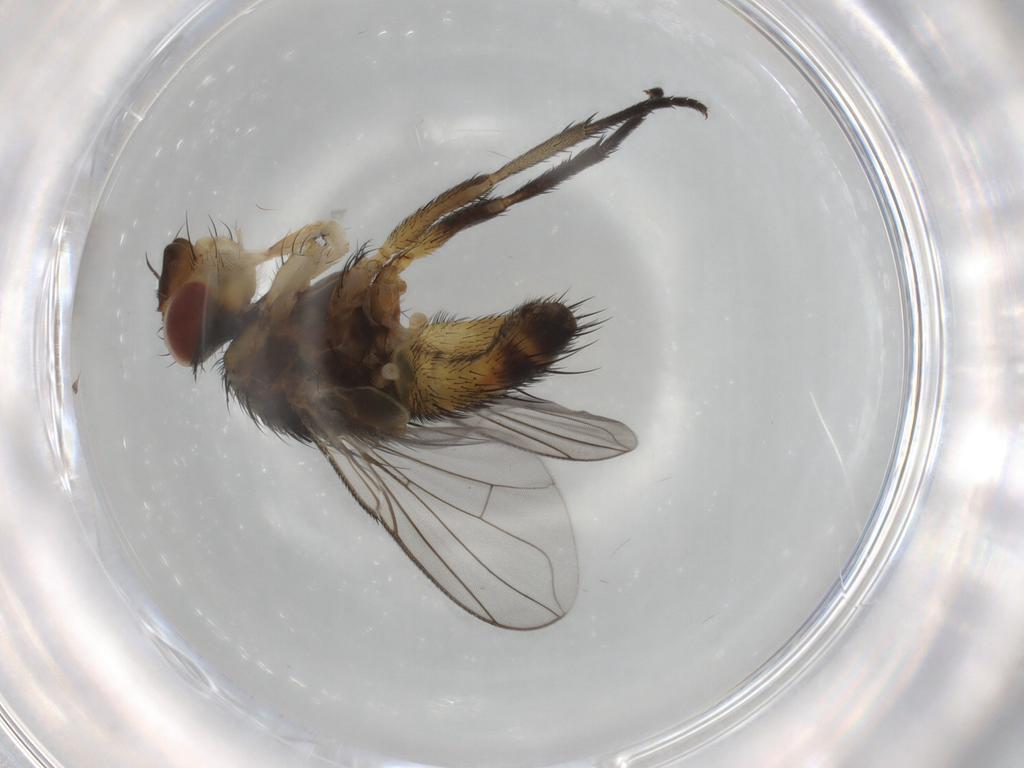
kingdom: Animalia
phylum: Arthropoda
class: Insecta
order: Diptera
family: Tachinidae
